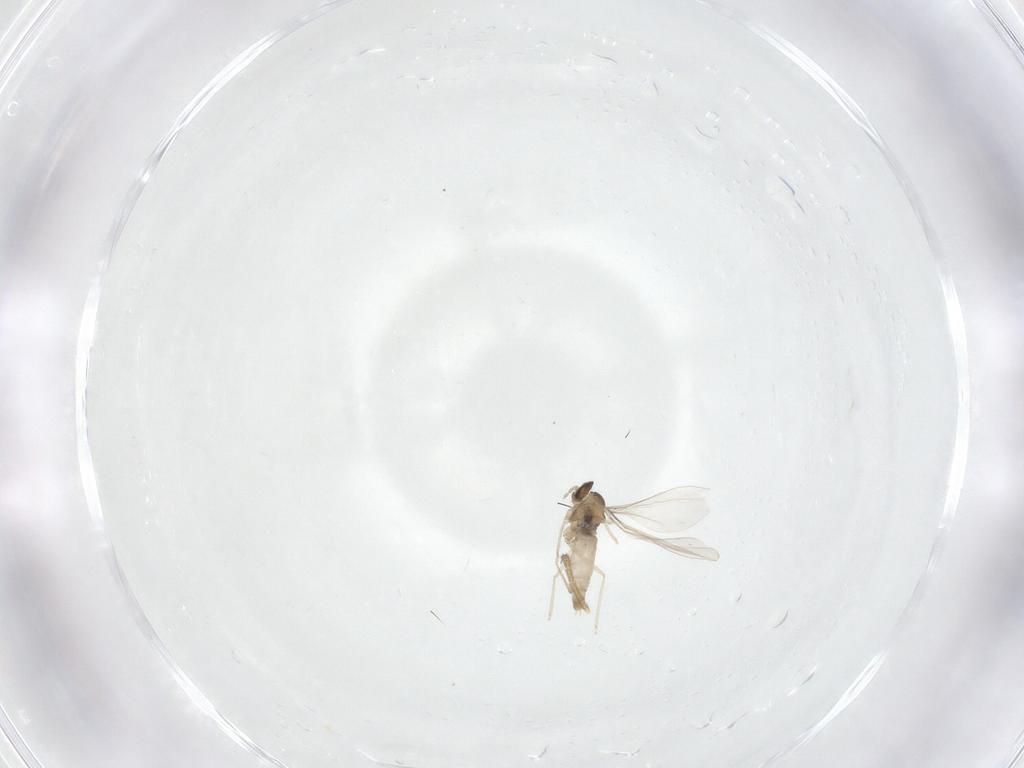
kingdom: Animalia
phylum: Arthropoda
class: Insecta
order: Diptera
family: Cecidomyiidae
